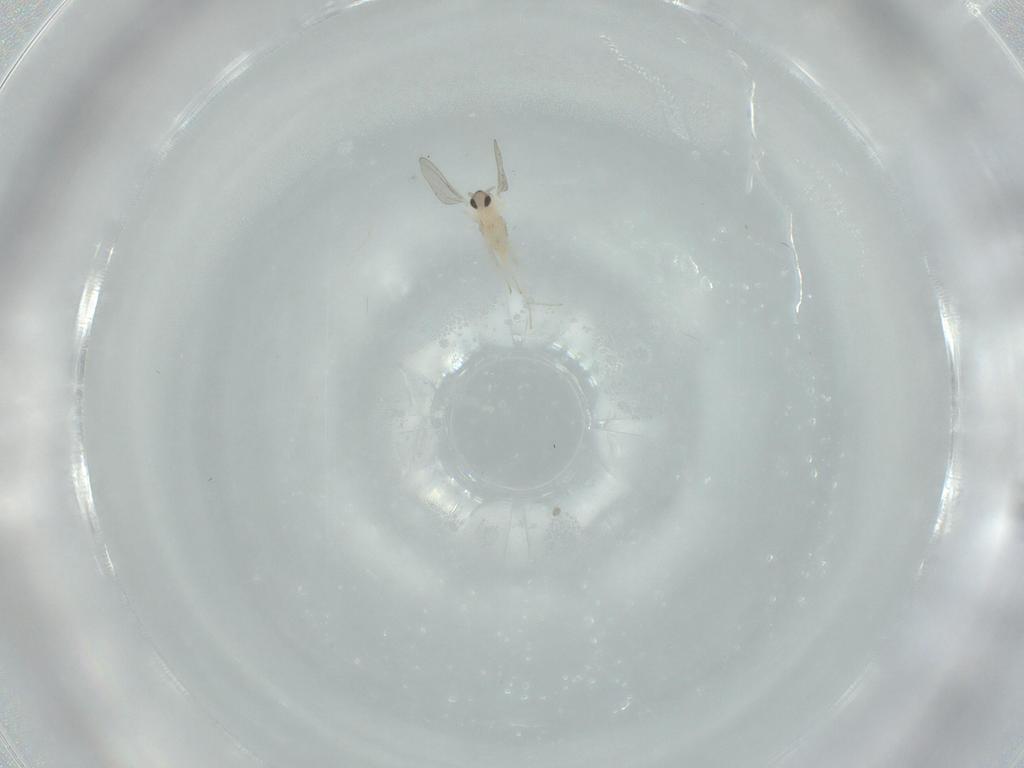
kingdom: Animalia
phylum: Arthropoda
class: Insecta
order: Diptera
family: Cecidomyiidae
